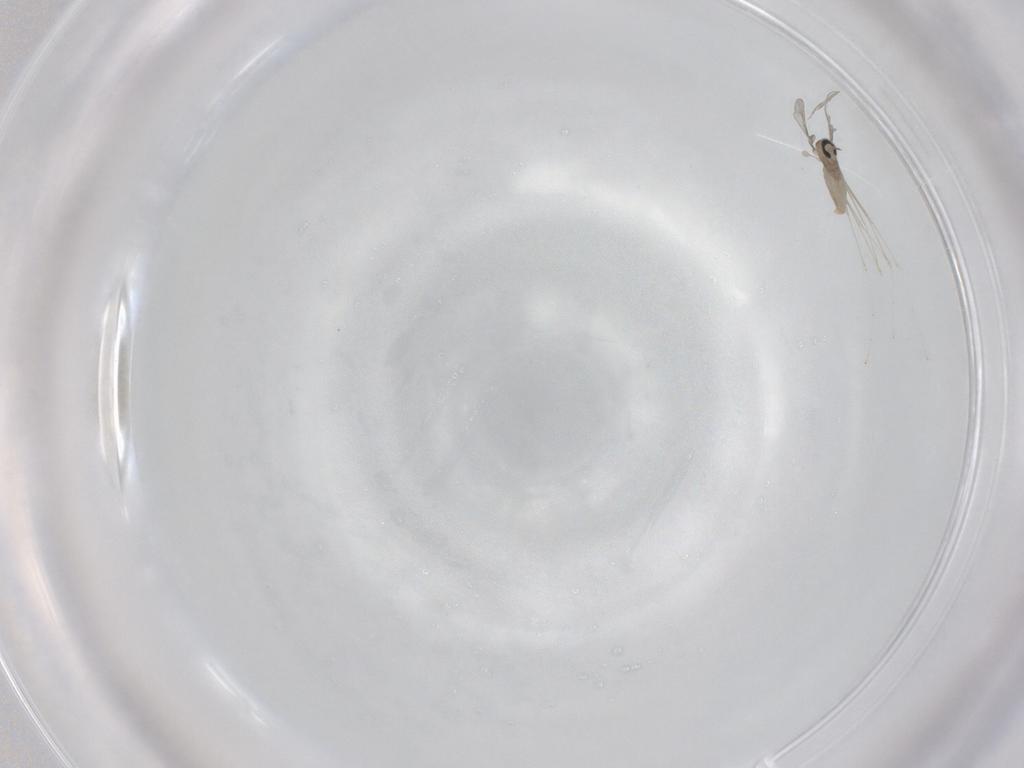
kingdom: Animalia
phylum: Arthropoda
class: Insecta
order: Diptera
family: Cecidomyiidae
